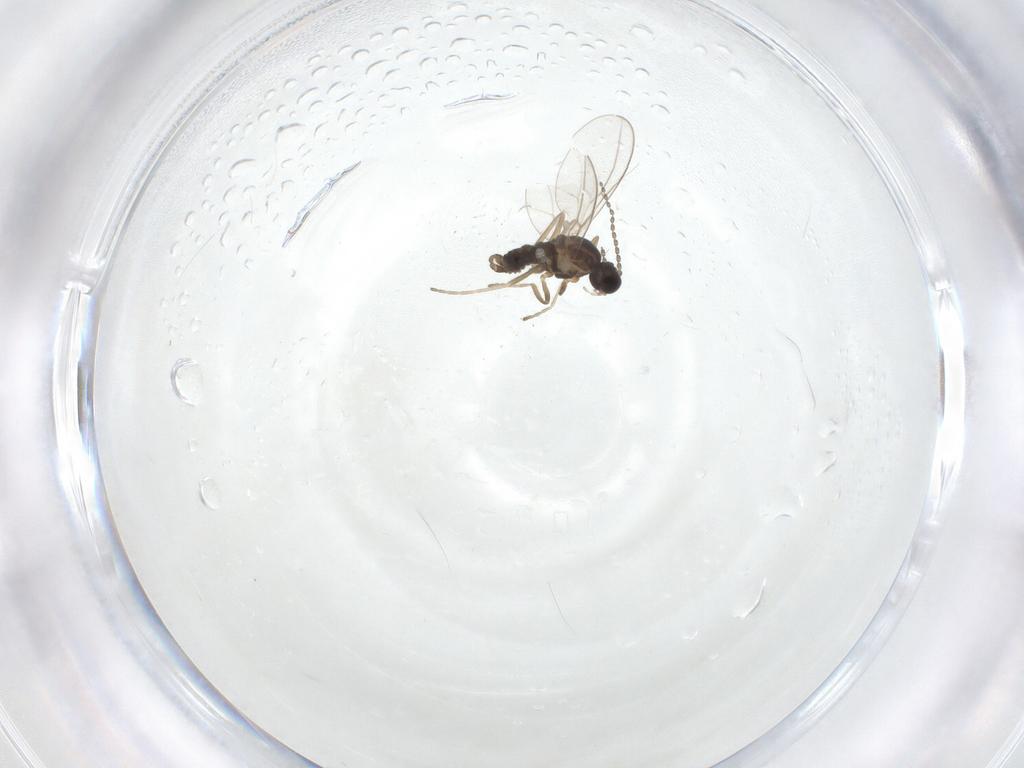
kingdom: Animalia
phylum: Arthropoda
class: Insecta
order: Diptera
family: Cecidomyiidae
